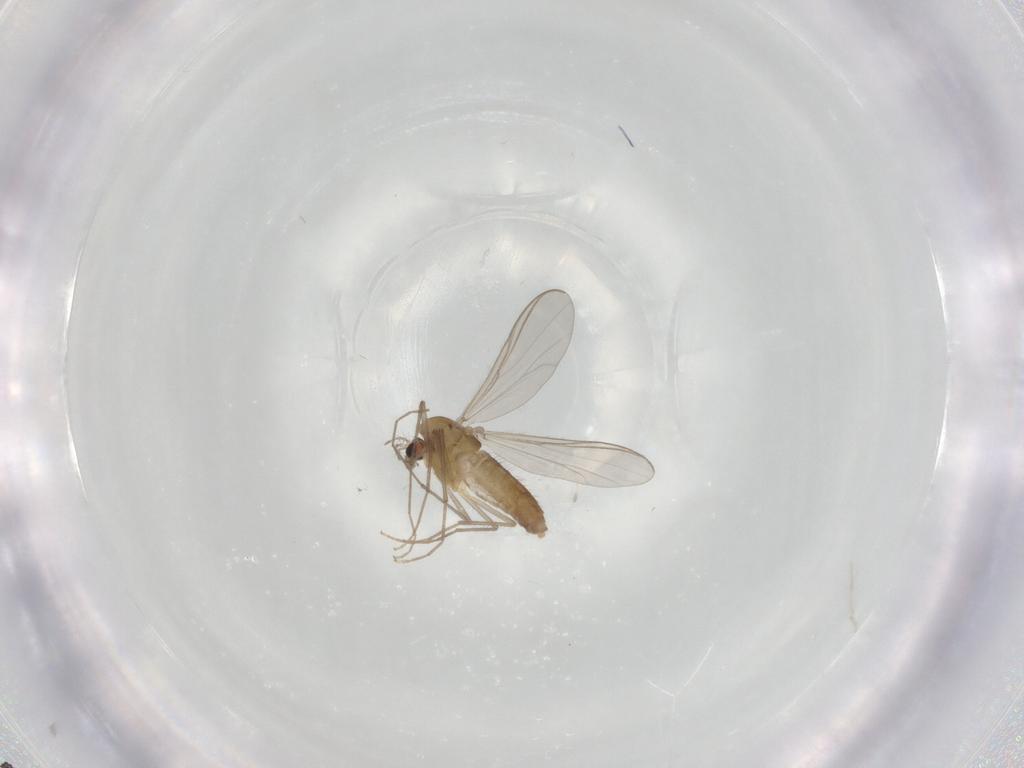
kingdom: Animalia
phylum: Arthropoda
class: Insecta
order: Diptera
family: Chironomidae
